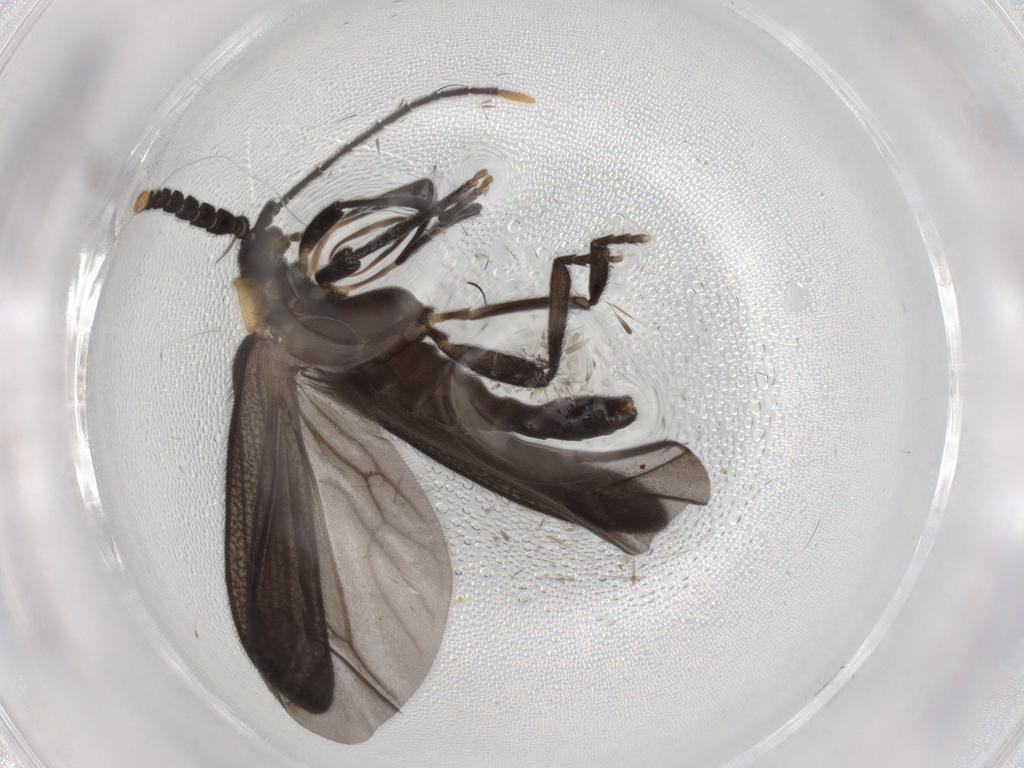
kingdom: Animalia
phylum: Arthropoda
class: Insecta
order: Coleoptera
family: Lycidae
